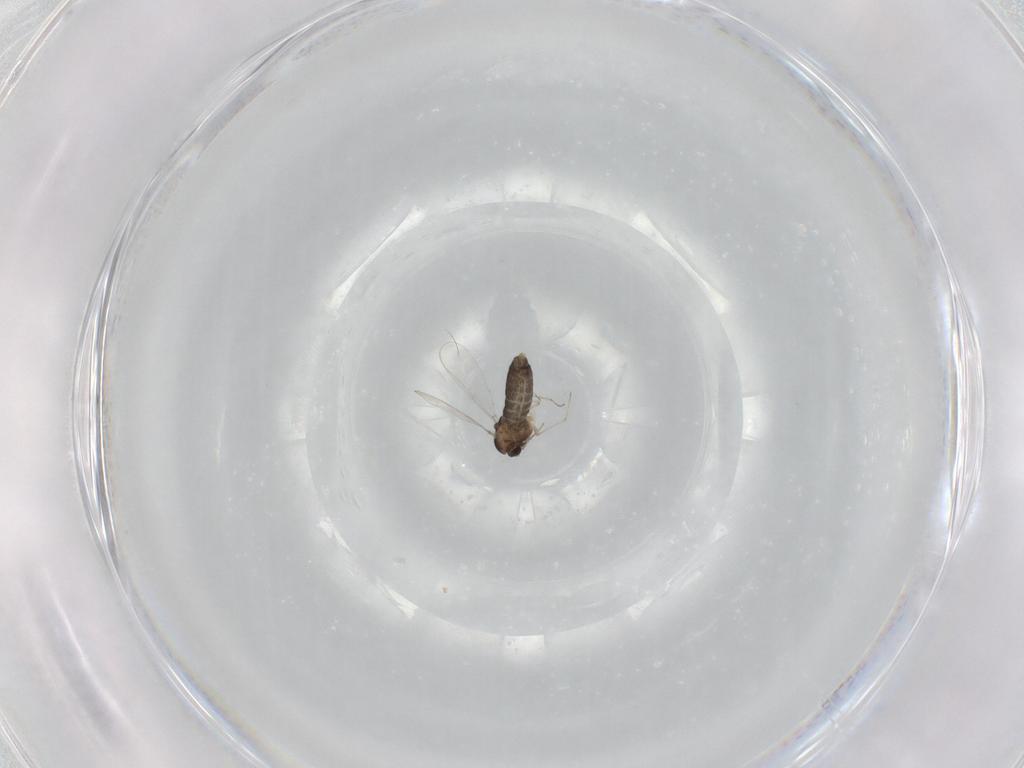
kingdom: Animalia
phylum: Arthropoda
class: Insecta
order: Diptera
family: Chironomidae
